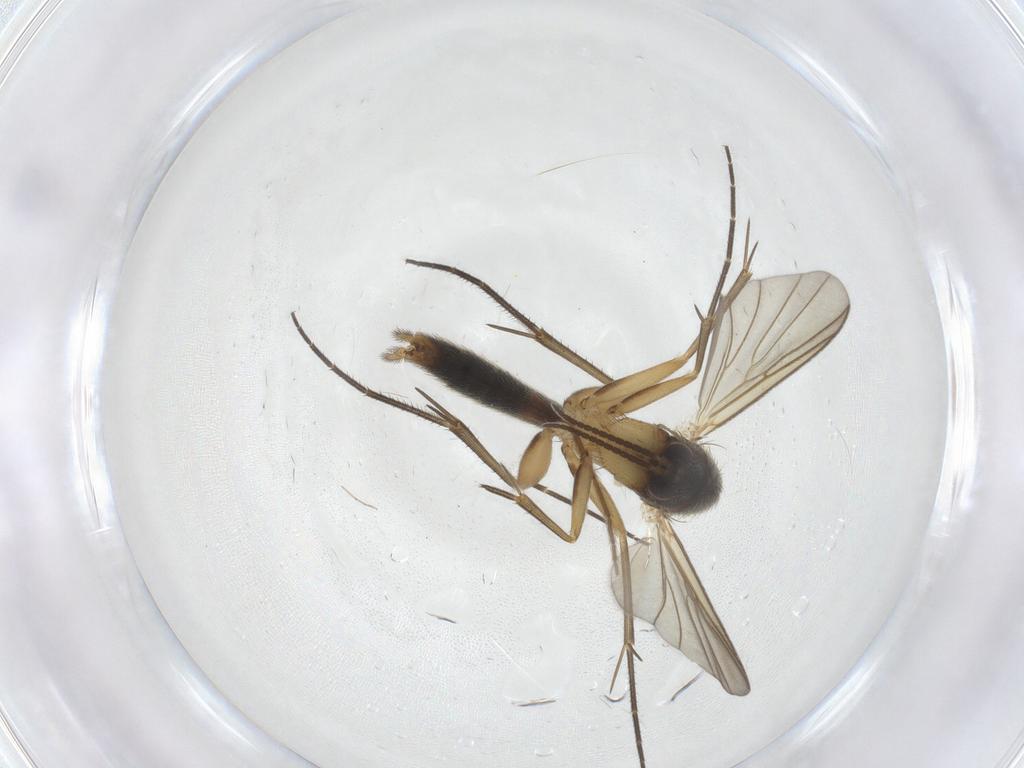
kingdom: Animalia
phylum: Arthropoda
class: Insecta
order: Diptera
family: Chironomidae
